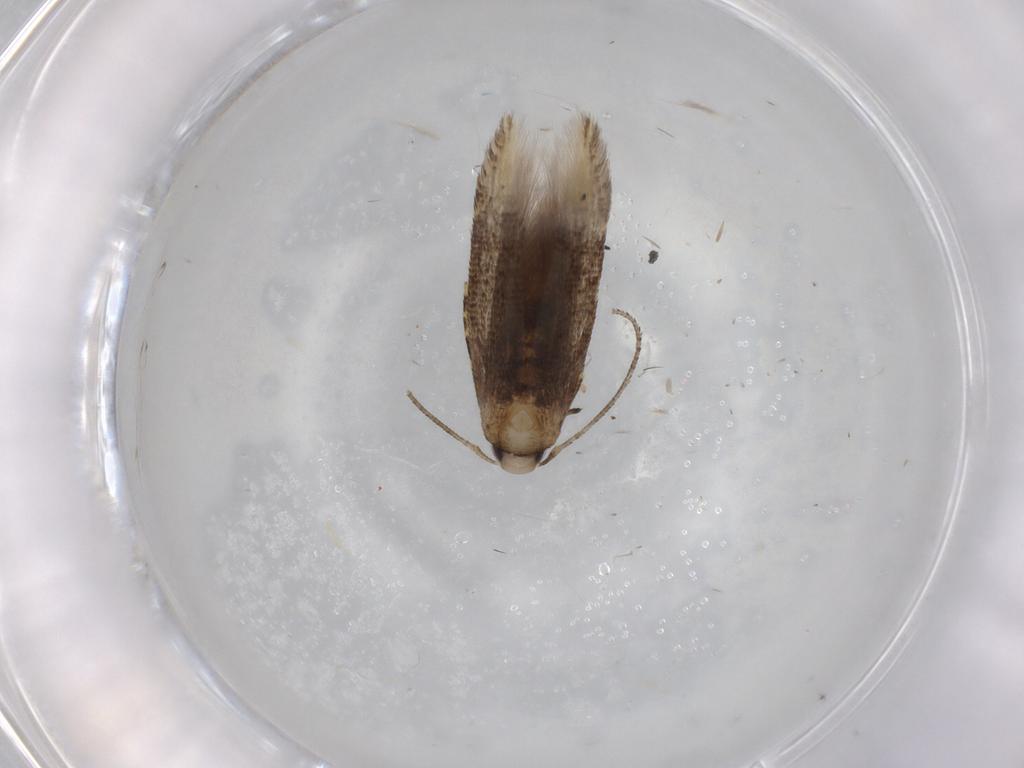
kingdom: Animalia
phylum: Arthropoda
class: Insecta
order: Lepidoptera
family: Cosmopterigidae
